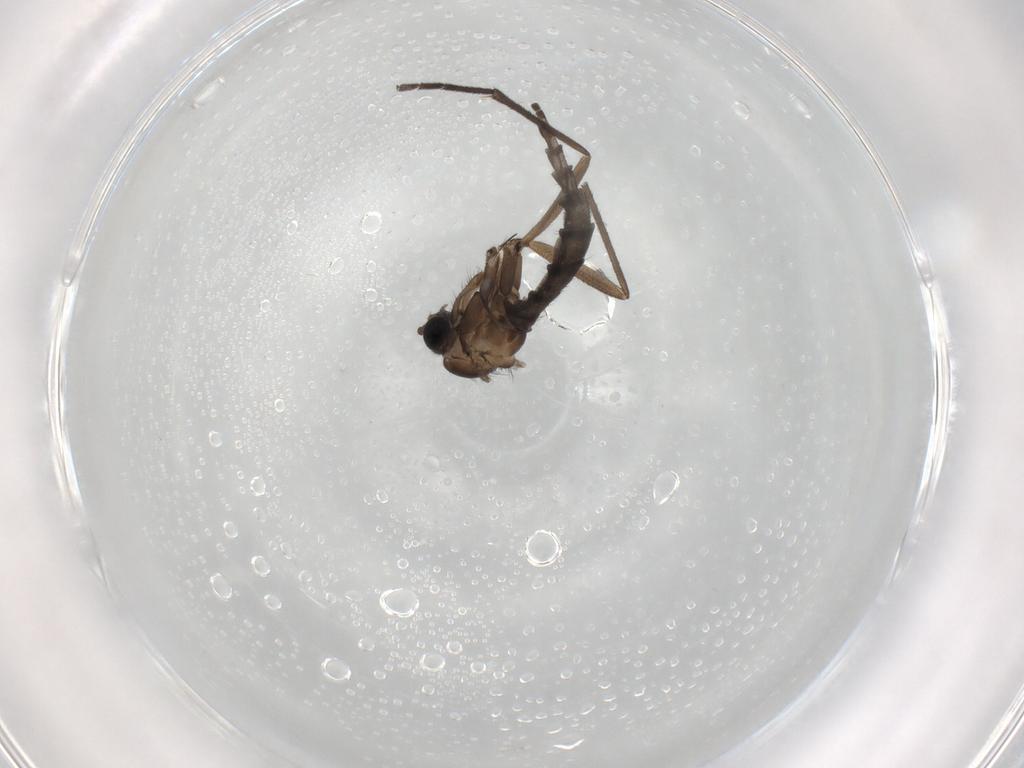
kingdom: Animalia
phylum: Arthropoda
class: Insecta
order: Diptera
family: Sciaridae
